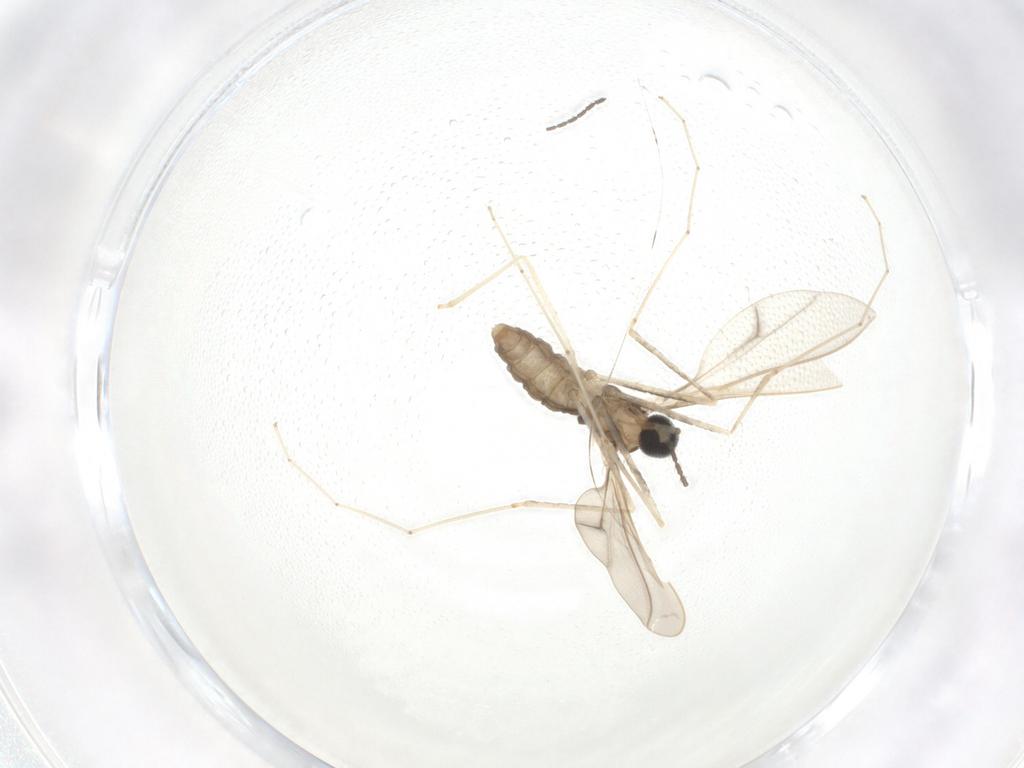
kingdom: Animalia
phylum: Arthropoda
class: Insecta
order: Diptera
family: Cecidomyiidae
